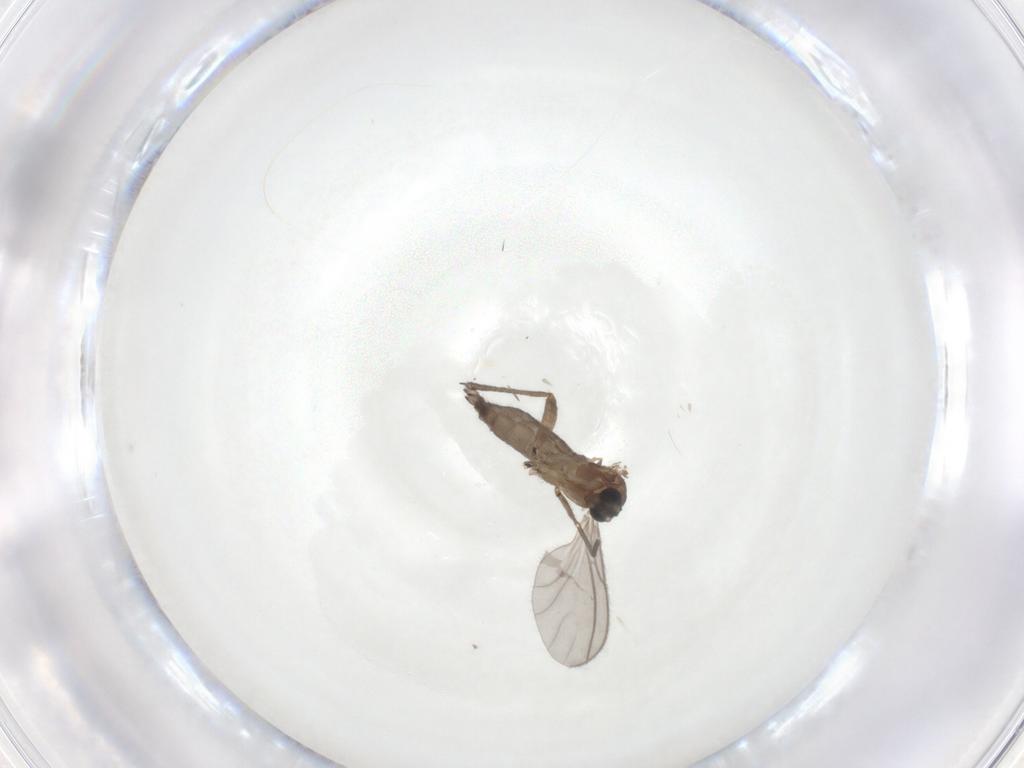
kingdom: Animalia
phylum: Arthropoda
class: Insecta
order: Diptera
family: Sciaridae
